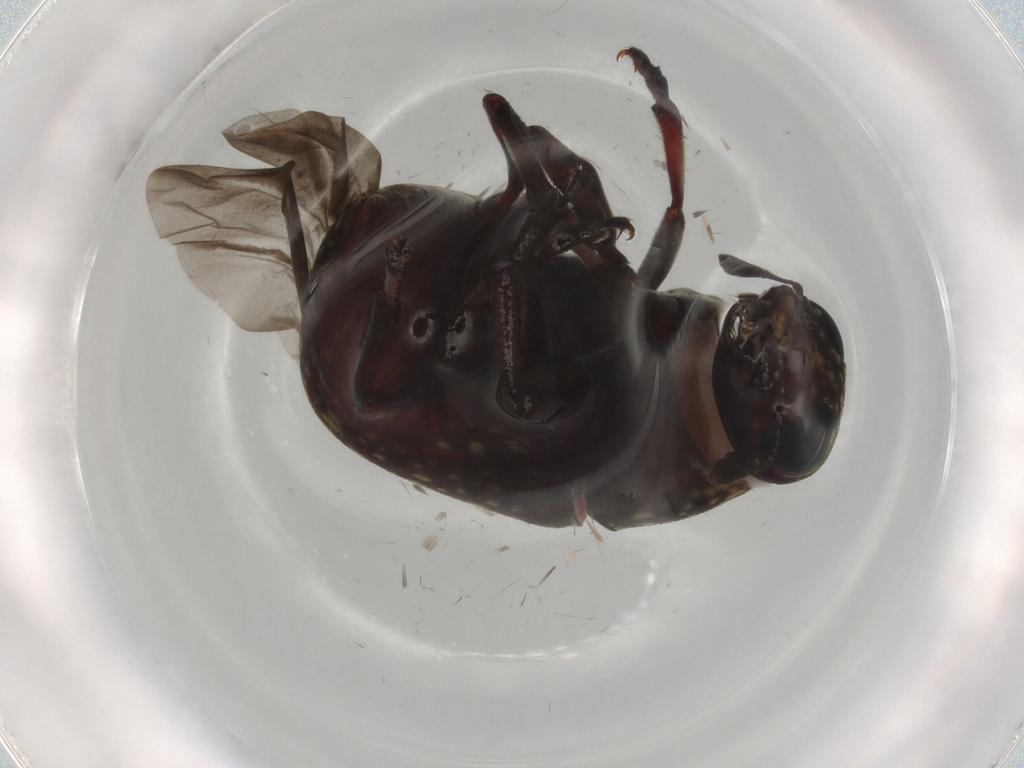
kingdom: Animalia
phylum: Arthropoda
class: Insecta
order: Coleoptera
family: Anthribidae
